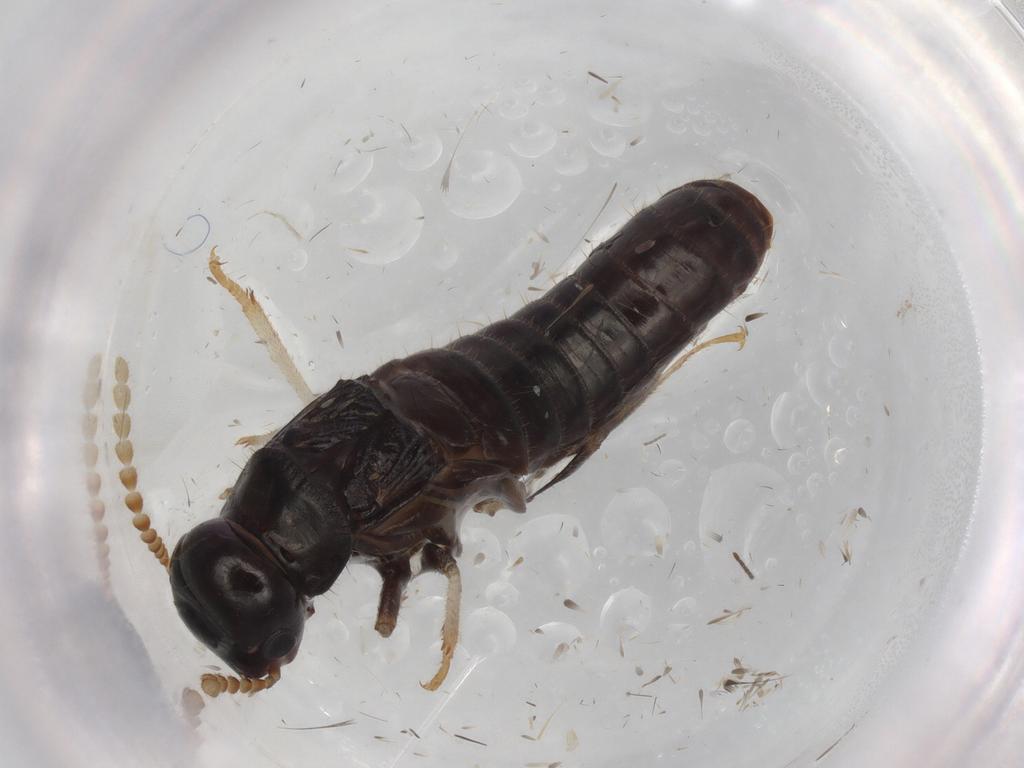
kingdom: Animalia
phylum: Arthropoda
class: Insecta
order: Blattodea
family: Kalotermitidae
